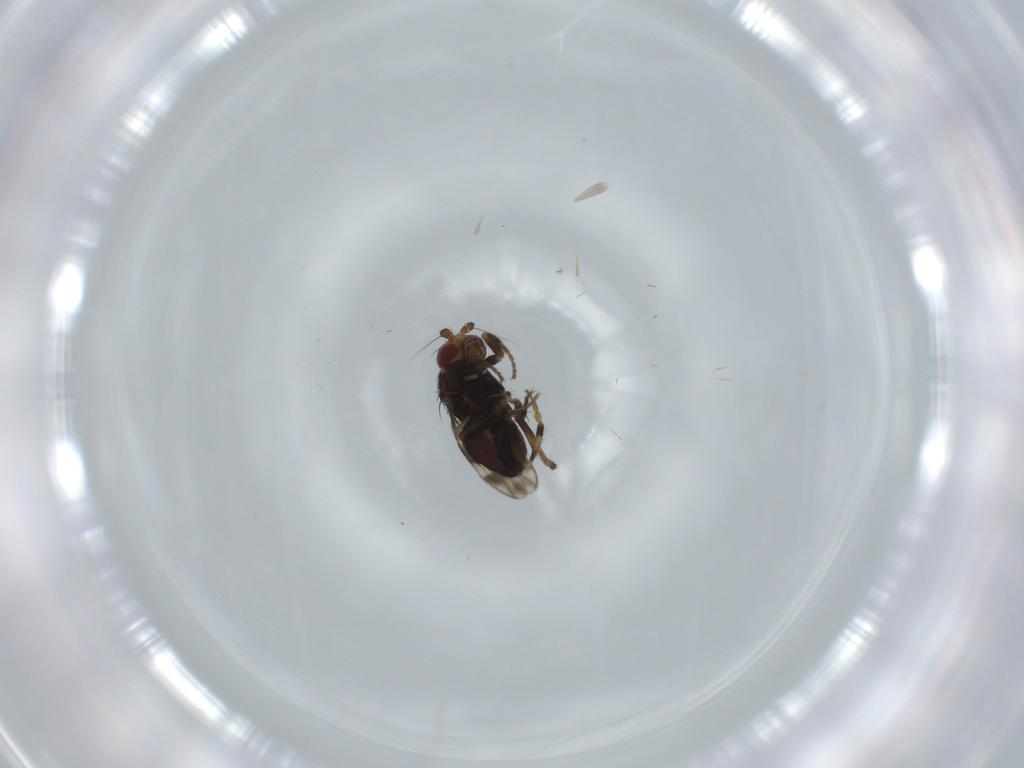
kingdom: Animalia
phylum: Arthropoda
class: Insecta
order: Diptera
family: Sphaeroceridae
